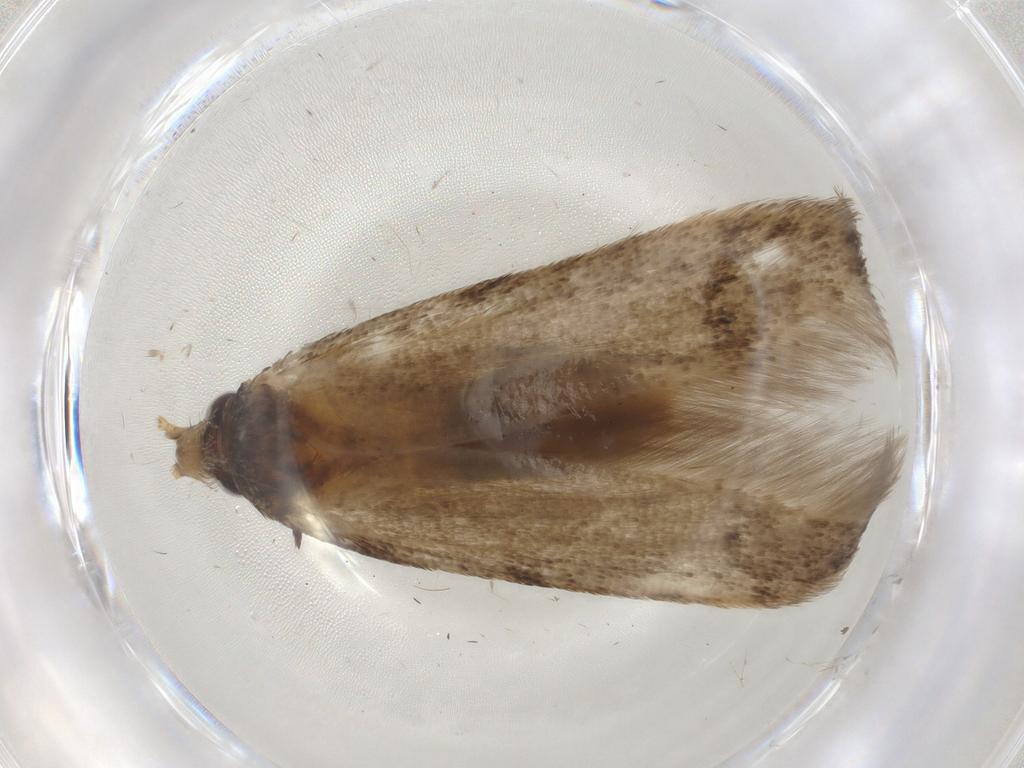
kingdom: Animalia
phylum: Arthropoda
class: Insecta
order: Lepidoptera
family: Coleophoridae
